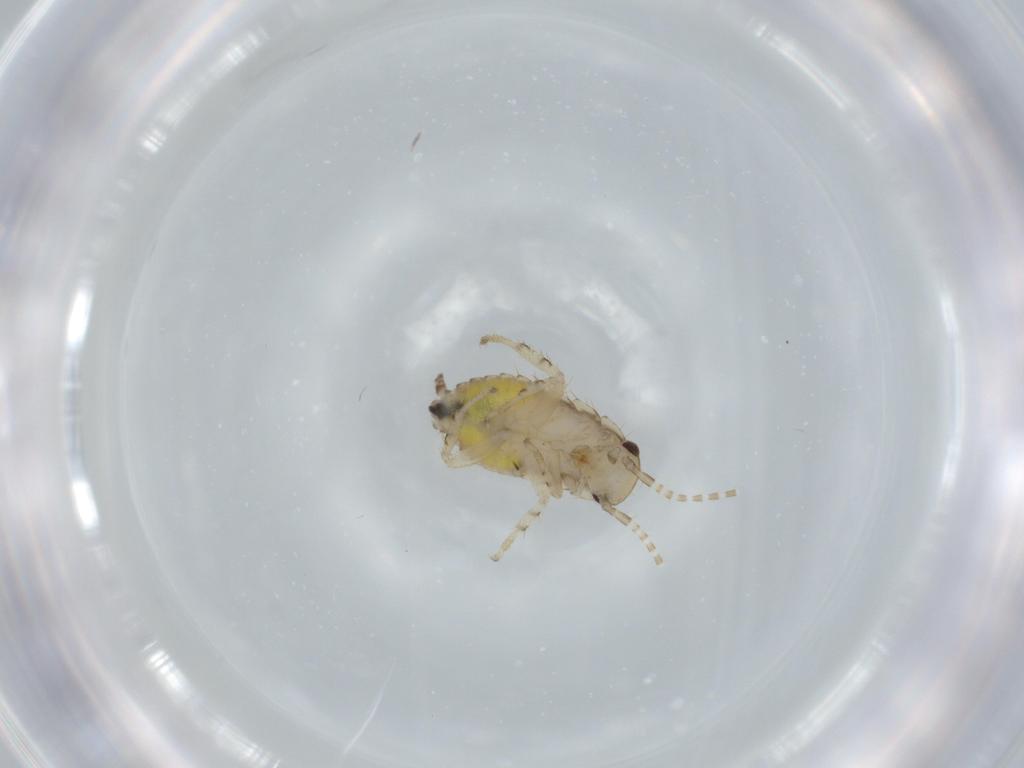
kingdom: Animalia
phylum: Arthropoda
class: Insecta
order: Blattodea
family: Ectobiidae
